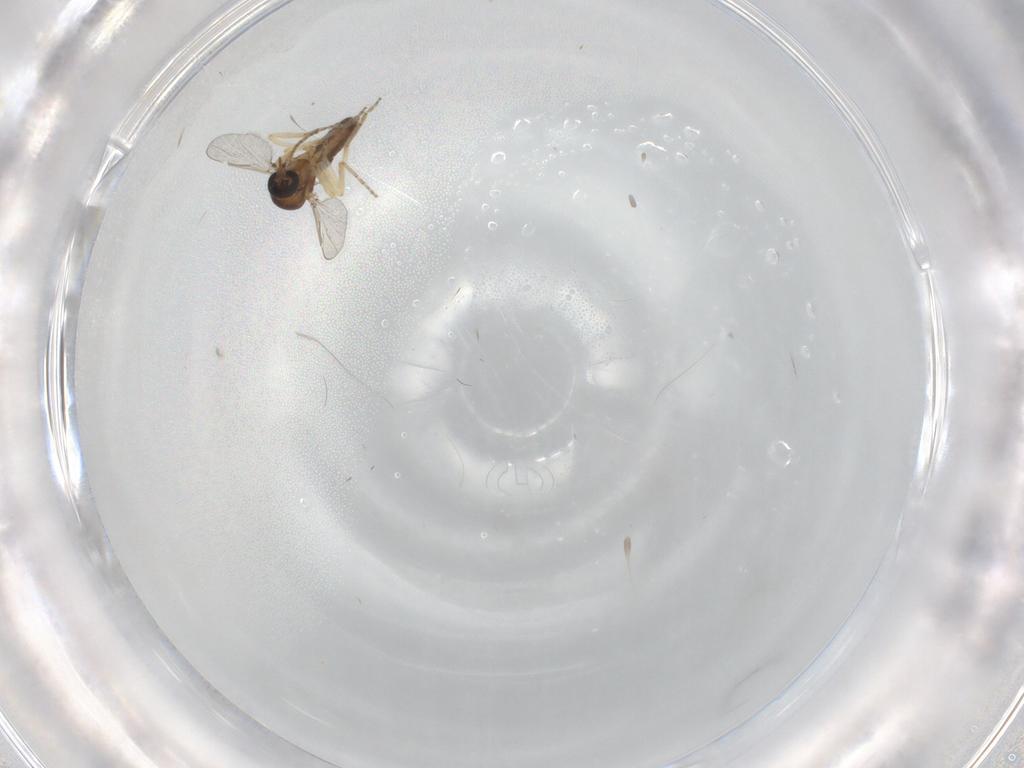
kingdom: Animalia
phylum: Arthropoda
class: Insecta
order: Diptera
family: Ceratopogonidae
